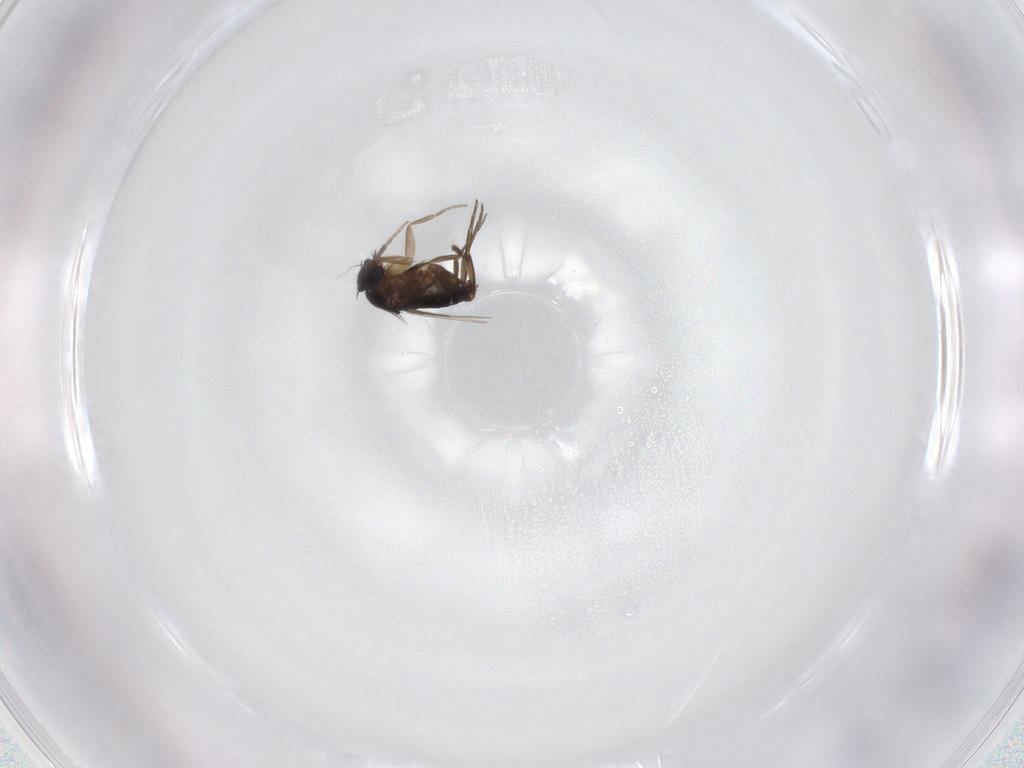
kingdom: Animalia
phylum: Arthropoda
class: Insecta
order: Diptera
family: Phoridae
